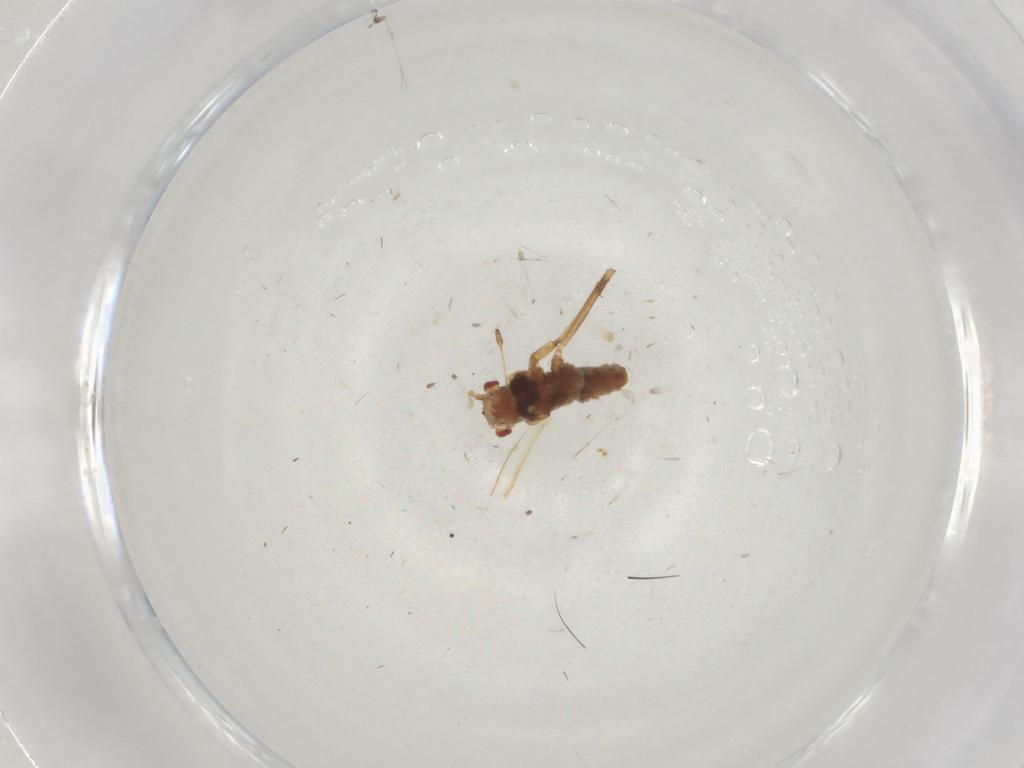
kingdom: Animalia
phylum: Arthropoda
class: Insecta
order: Hemiptera
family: Lachnidae
